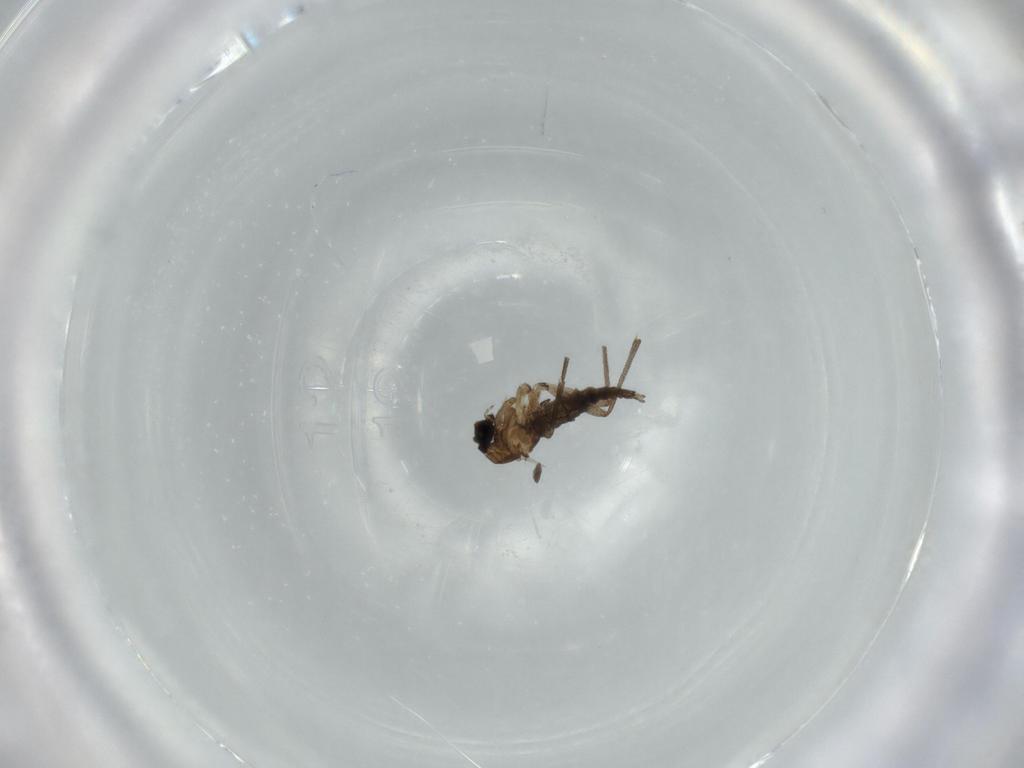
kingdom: Animalia
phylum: Arthropoda
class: Insecta
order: Diptera
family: Sciaridae
